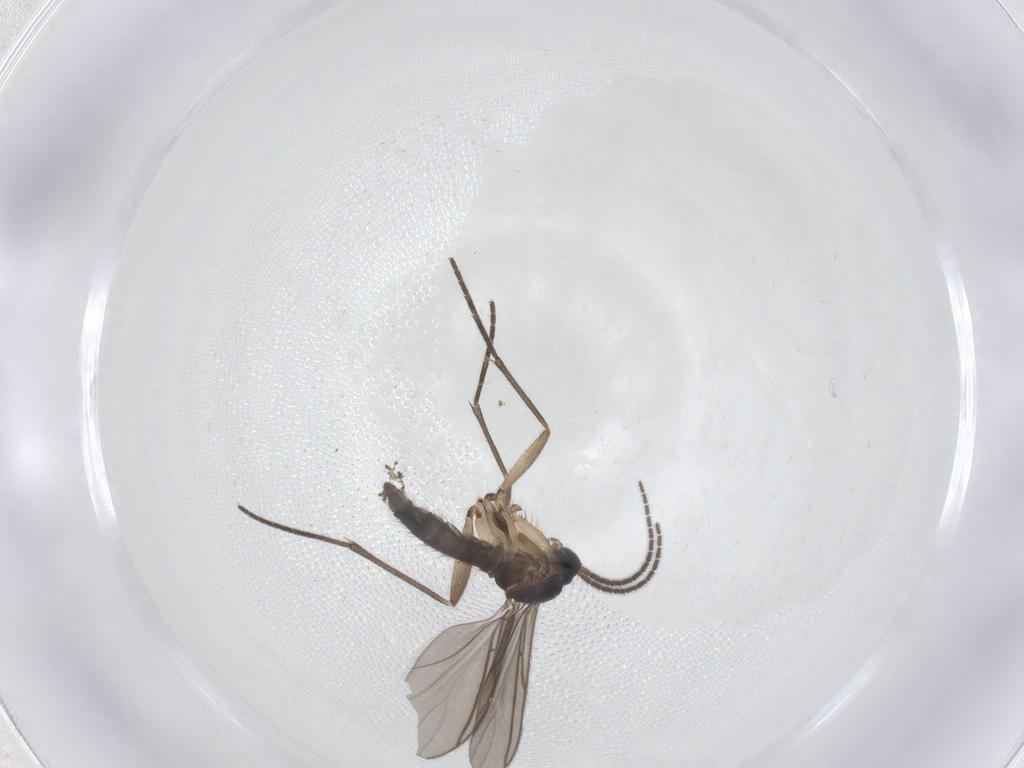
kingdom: Animalia
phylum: Arthropoda
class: Insecta
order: Diptera
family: Sciaridae
